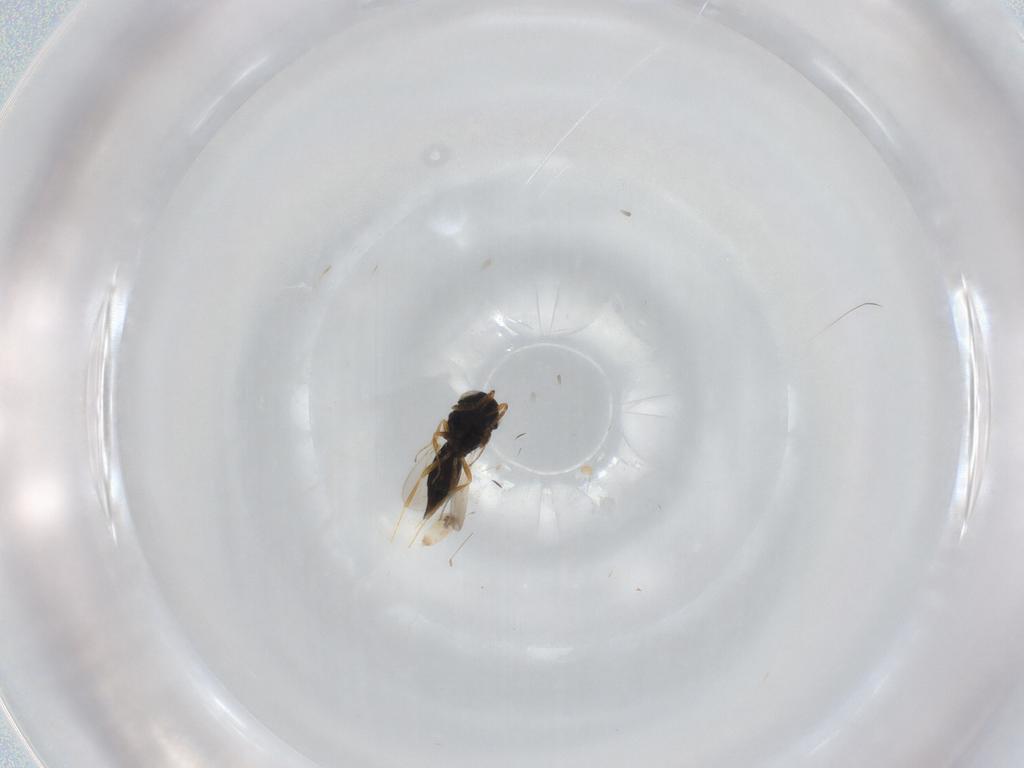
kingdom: Animalia
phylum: Arthropoda
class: Insecta
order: Hymenoptera
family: Scelionidae
